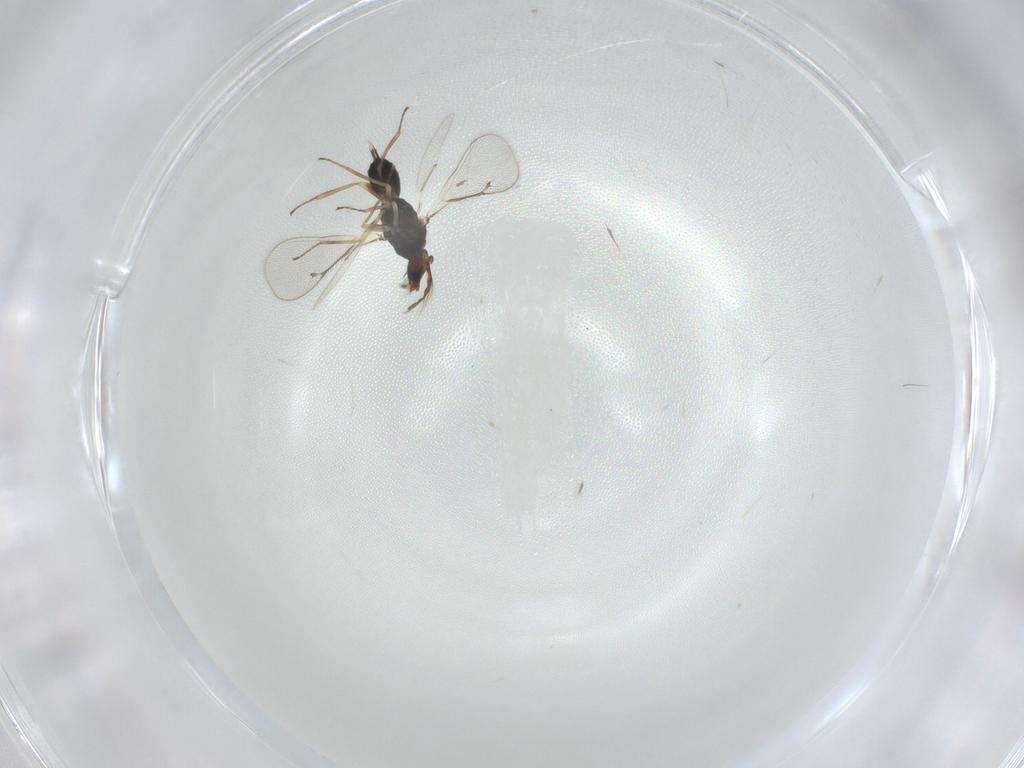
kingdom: Animalia
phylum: Arthropoda
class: Insecta
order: Hymenoptera
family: Eulophidae
